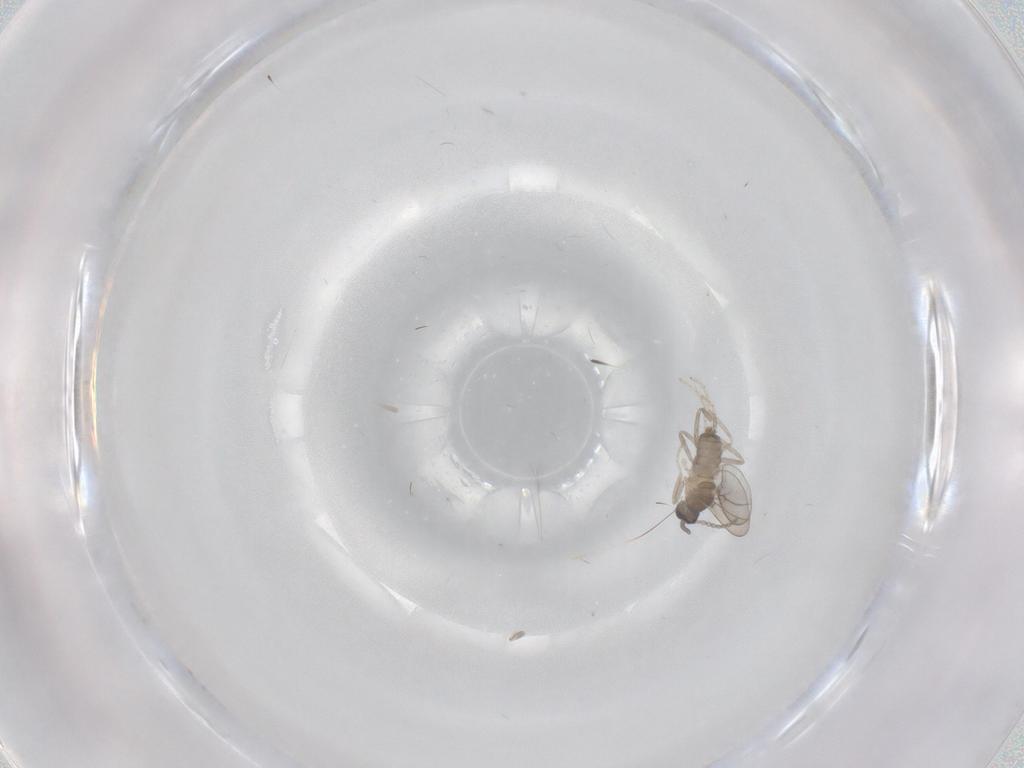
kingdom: Animalia
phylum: Arthropoda
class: Insecta
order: Diptera
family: Cecidomyiidae
